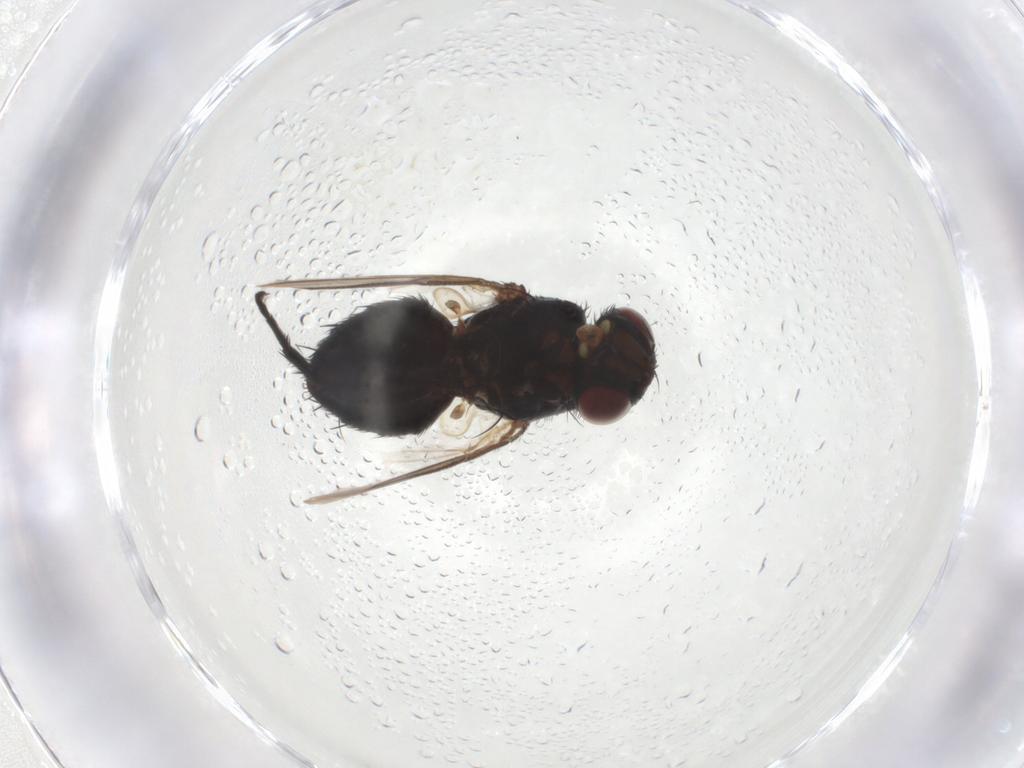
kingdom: Animalia
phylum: Arthropoda
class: Insecta
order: Diptera
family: Tachinidae
